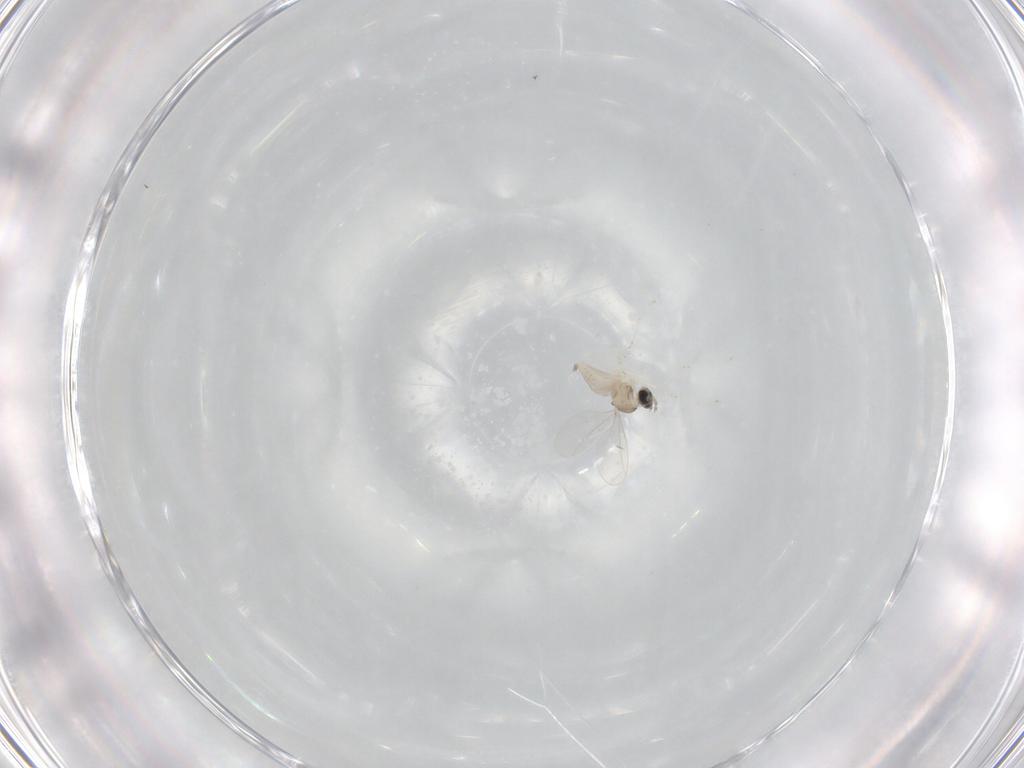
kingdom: Animalia
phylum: Arthropoda
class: Insecta
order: Diptera
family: Cecidomyiidae
